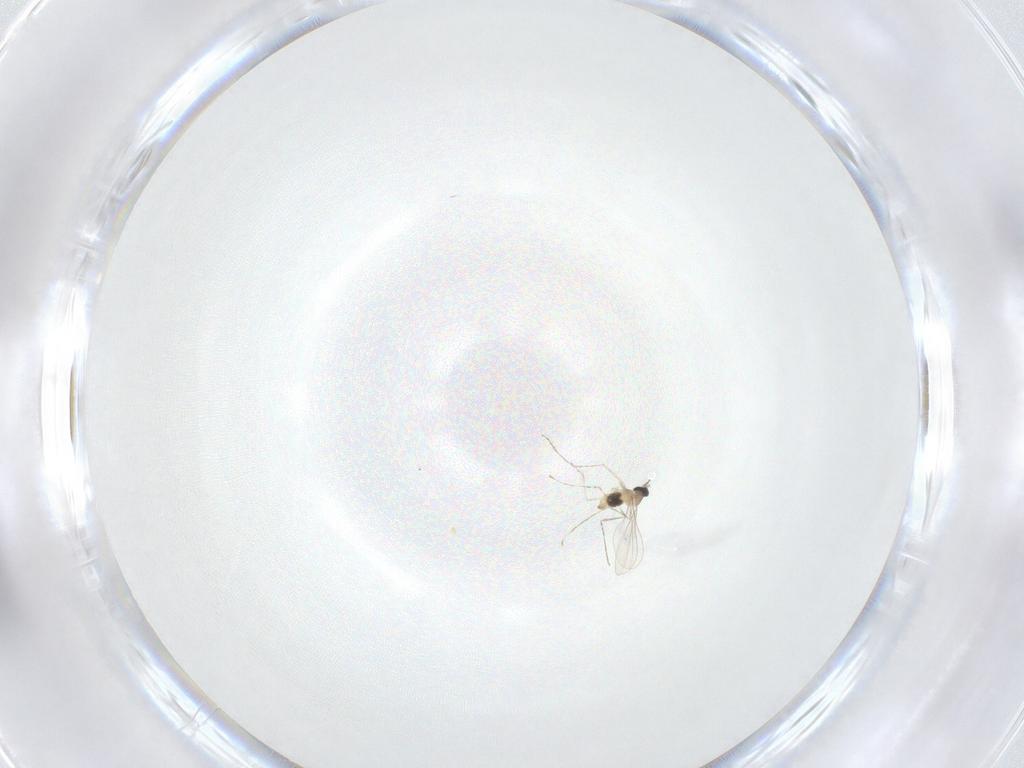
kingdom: Animalia
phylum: Arthropoda
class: Insecta
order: Diptera
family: Cecidomyiidae
